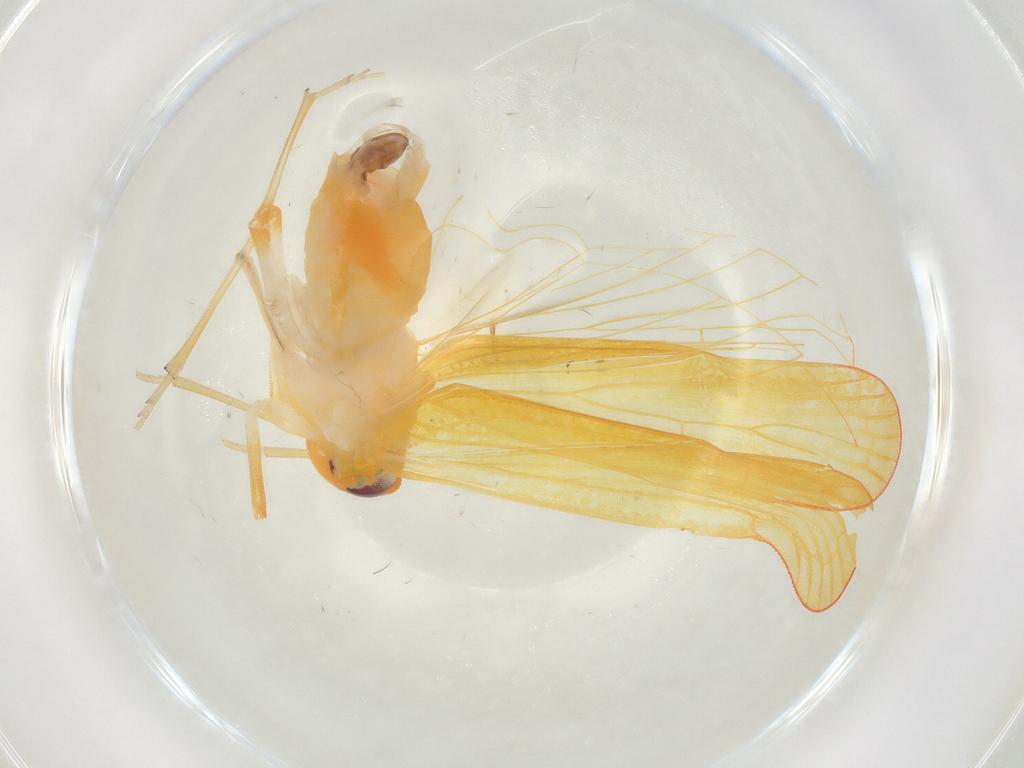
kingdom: Animalia
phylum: Arthropoda
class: Insecta
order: Hemiptera
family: Derbidae
